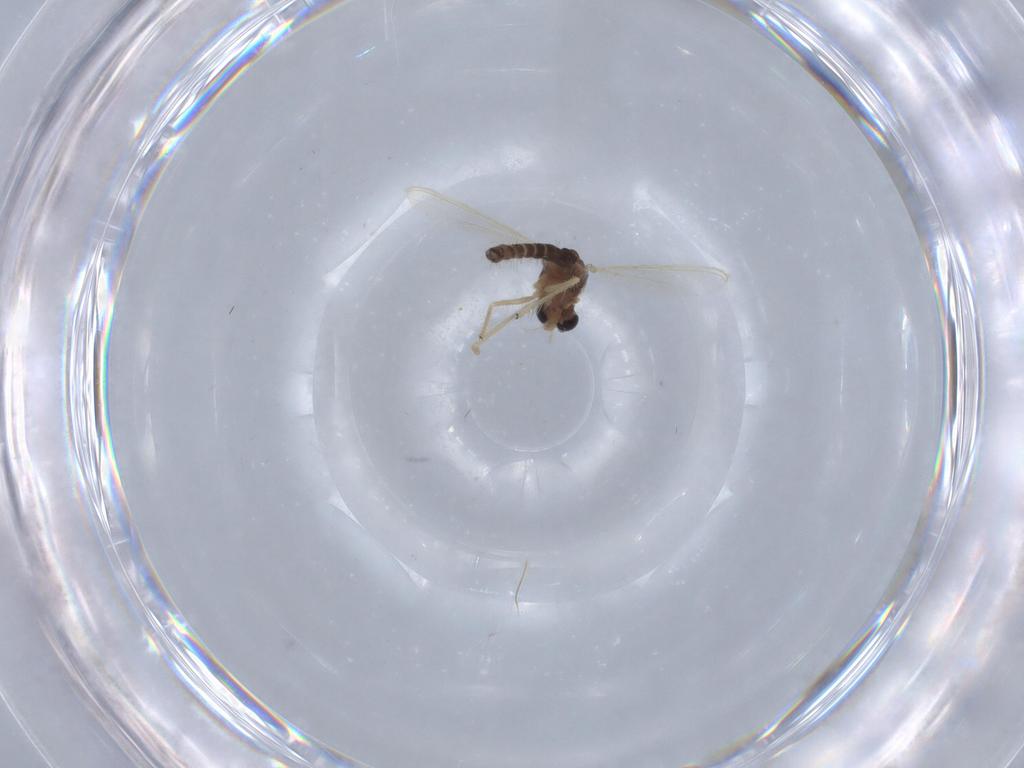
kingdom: Animalia
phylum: Arthropoda
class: Insecta
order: Diptera
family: Chironomidae
